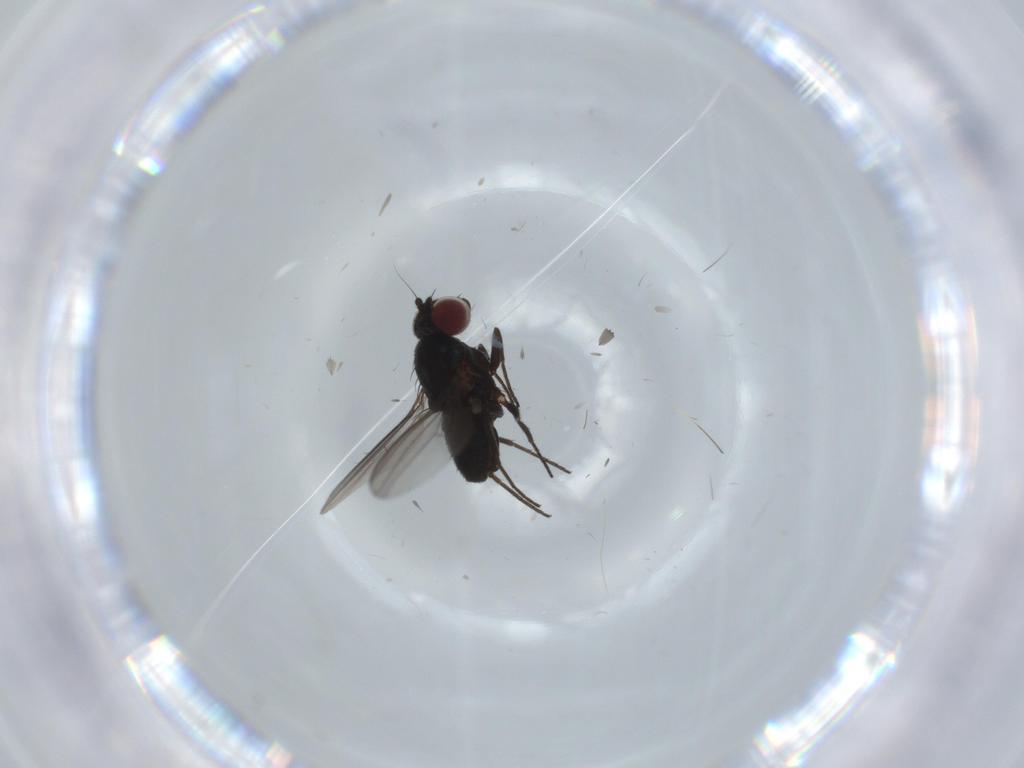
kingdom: Animalia
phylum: Arthropoda
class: Insecta
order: Diptera
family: Dolichopodidae
